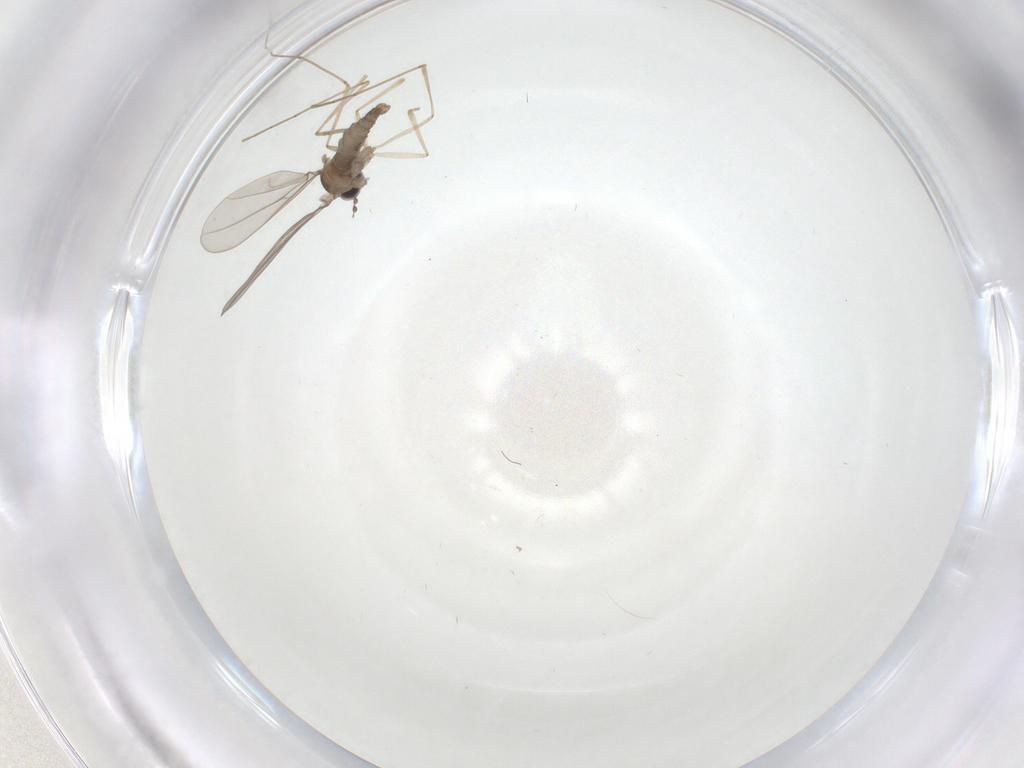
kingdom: Animalia
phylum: Arthropoda
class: Insecta
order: Diptera
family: Cecidomyiidae
